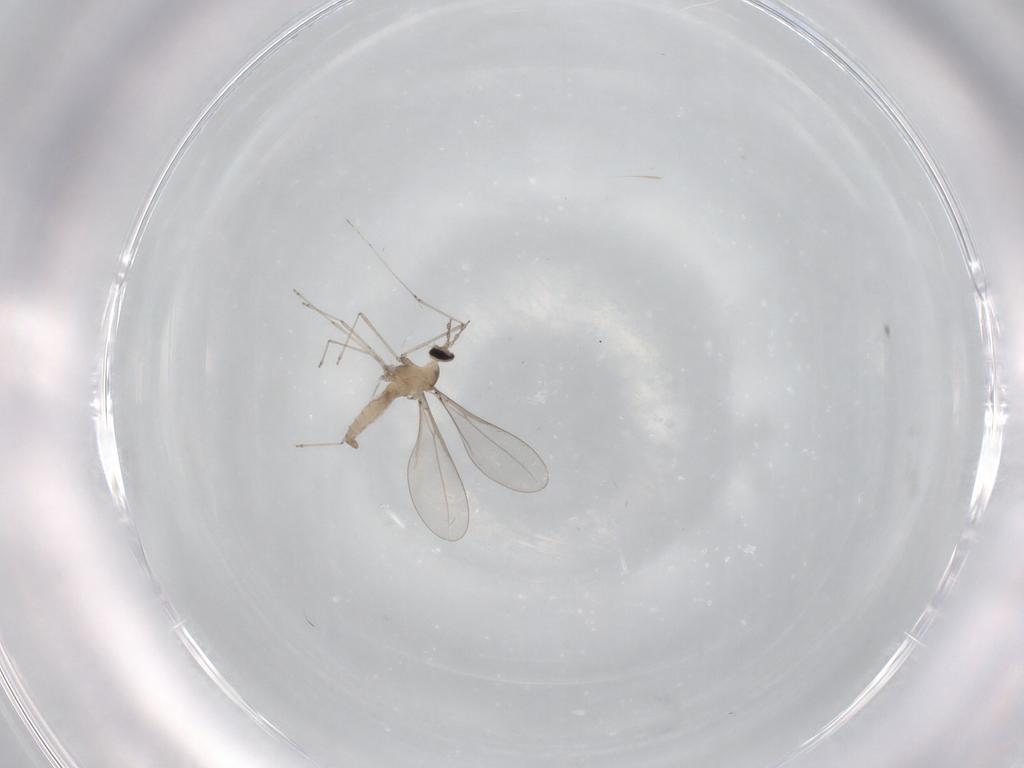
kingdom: Animalia
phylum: Arthropoda
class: Insecta
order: Diptera
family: Cecidomyiidae
